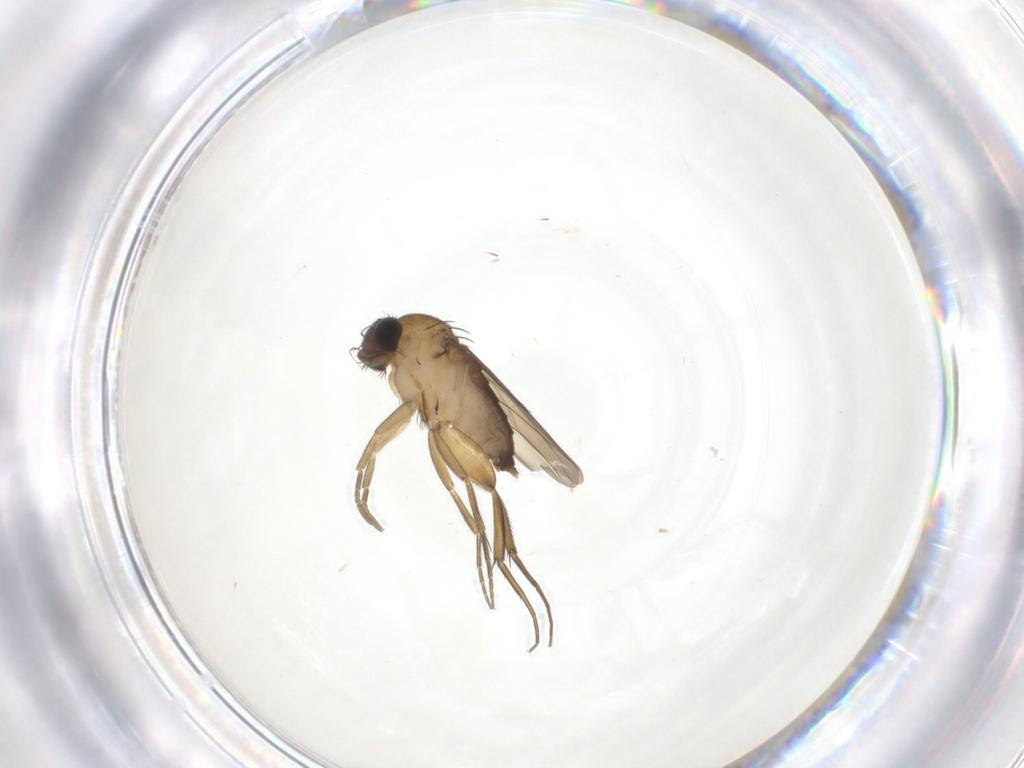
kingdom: Animalia
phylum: Arthropoda
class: Insecta
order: Diptera
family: Phoridae
